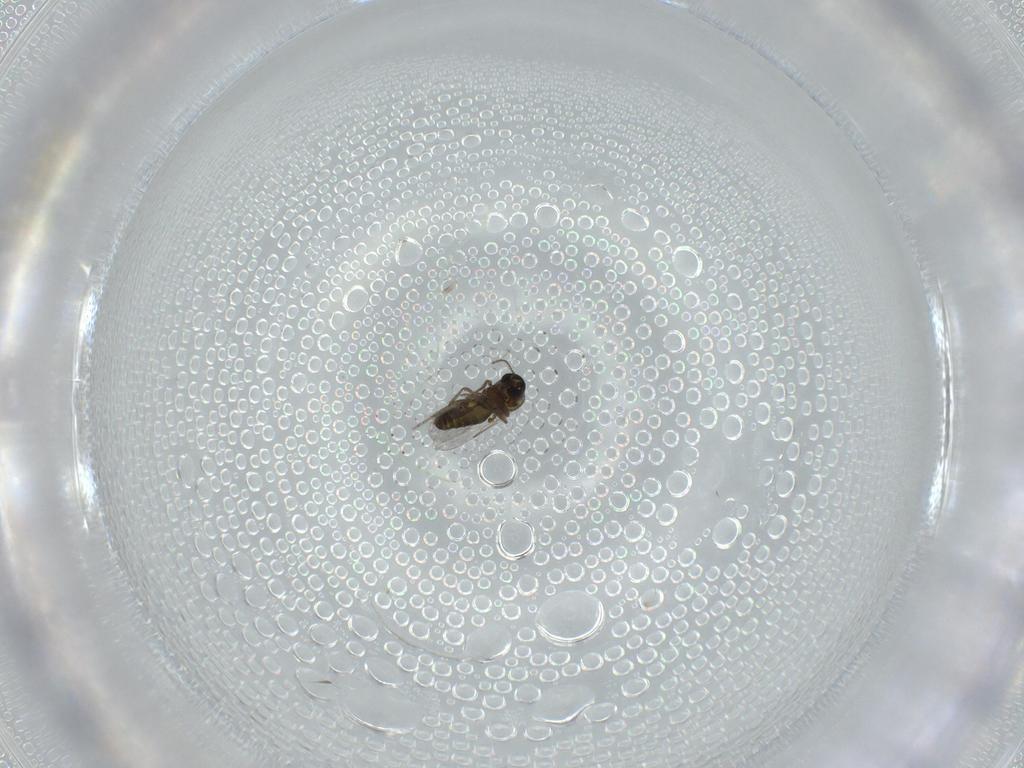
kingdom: Animalia
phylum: Arthropoda
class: Insecta
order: Diptera
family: Ceratopogonidae
